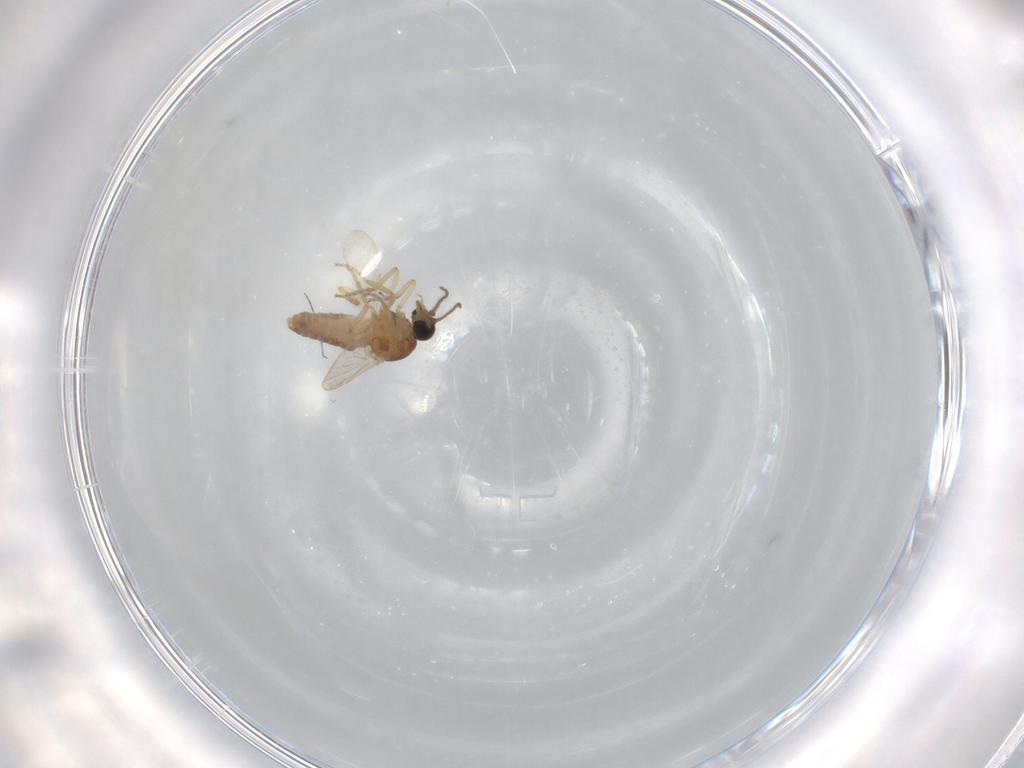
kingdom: Animalia
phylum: Arthropoda
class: Insecta
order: Diptera
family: Ceratopogonidae
